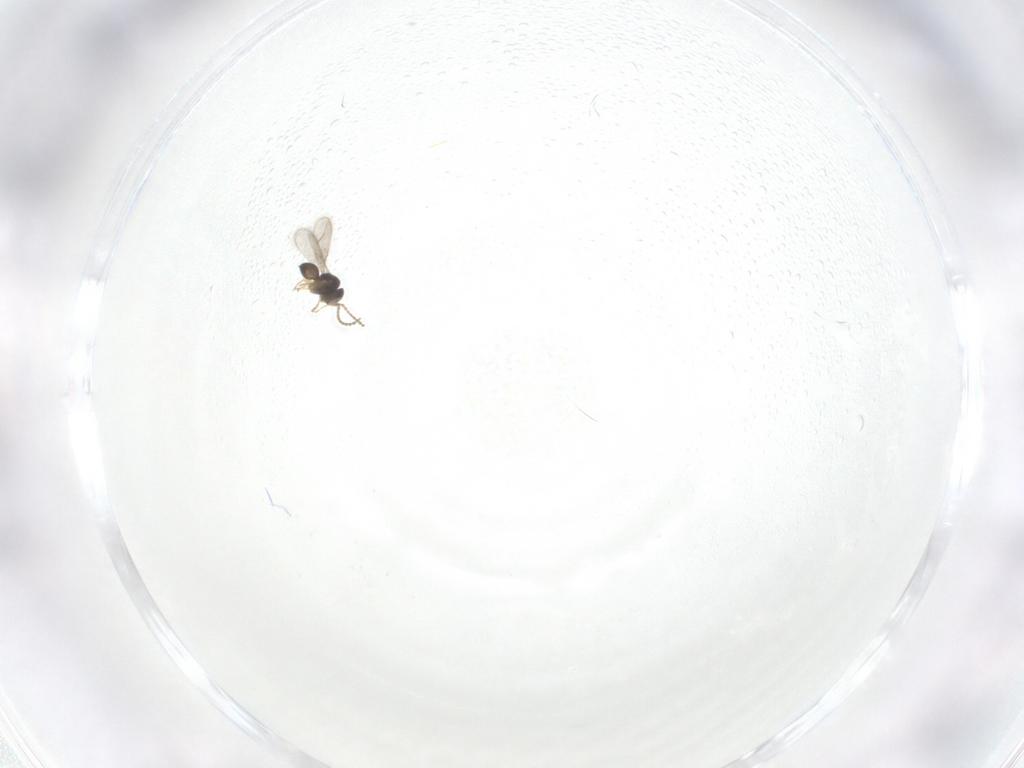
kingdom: Animalia
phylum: Arthropoda
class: Insecta
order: Hymenoptera
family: Scelionidae
